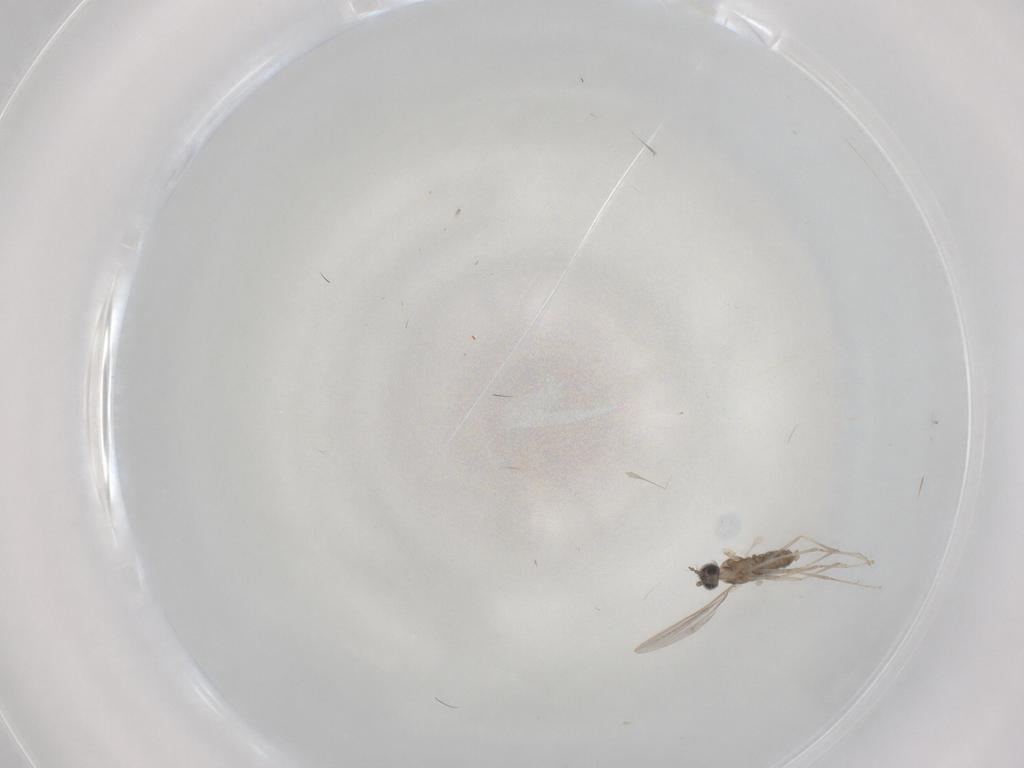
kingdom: Animalia
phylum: Arthropoda
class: Insecta
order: Diptera
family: Cecidomyiidae
